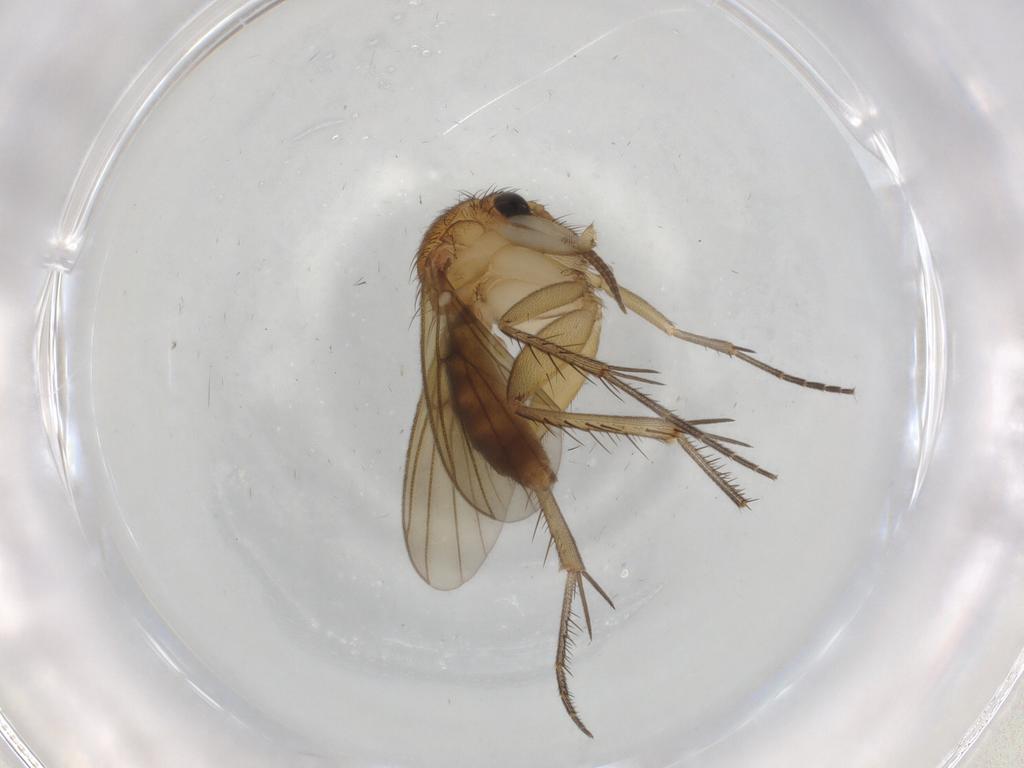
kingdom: Animalia
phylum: Arthropoda
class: Insecta
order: Diptera
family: Mycetophilidae
